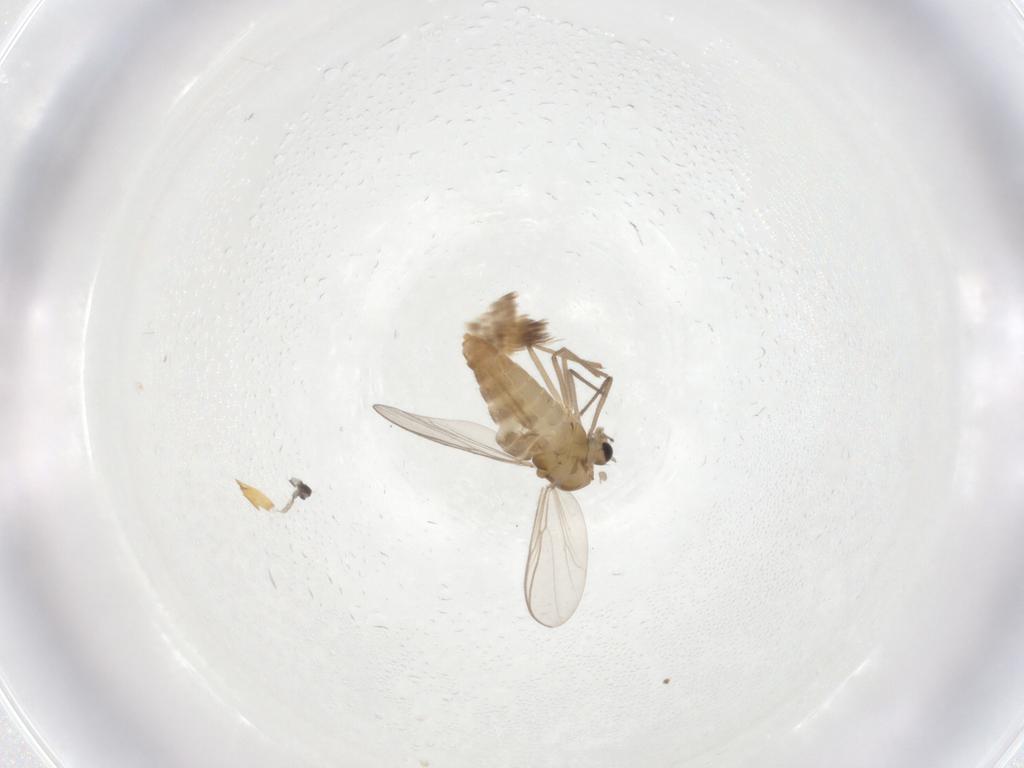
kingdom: Animalia
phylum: Arthropoda
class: Insecta
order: Diptera
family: Chironomidae
